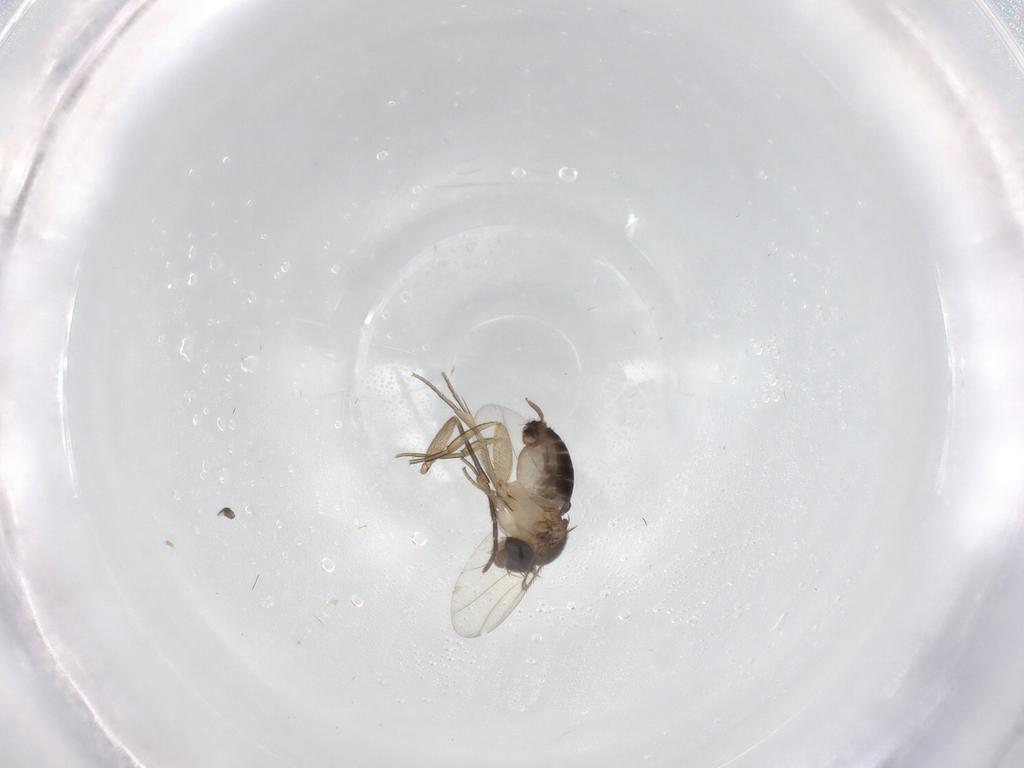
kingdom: Animalia
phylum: Arthropoda
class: Insecta
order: Diptera
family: Sciaridae
